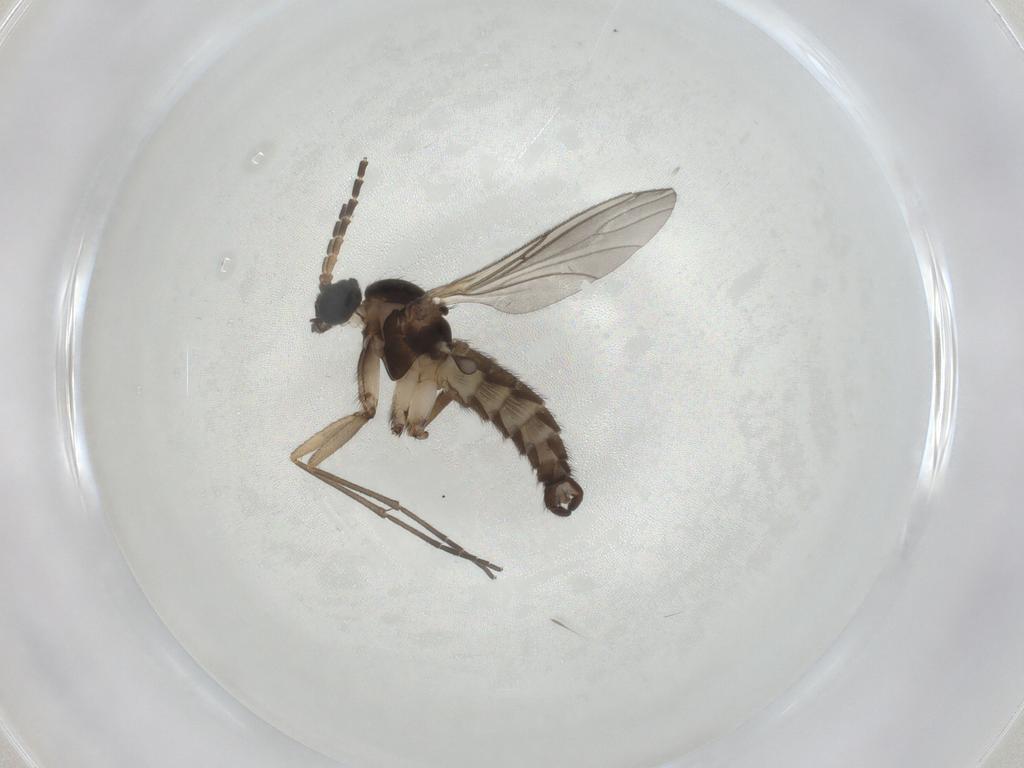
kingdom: Animalia
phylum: Arthropoda
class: Insecta
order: Diptera
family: Sciaridae
